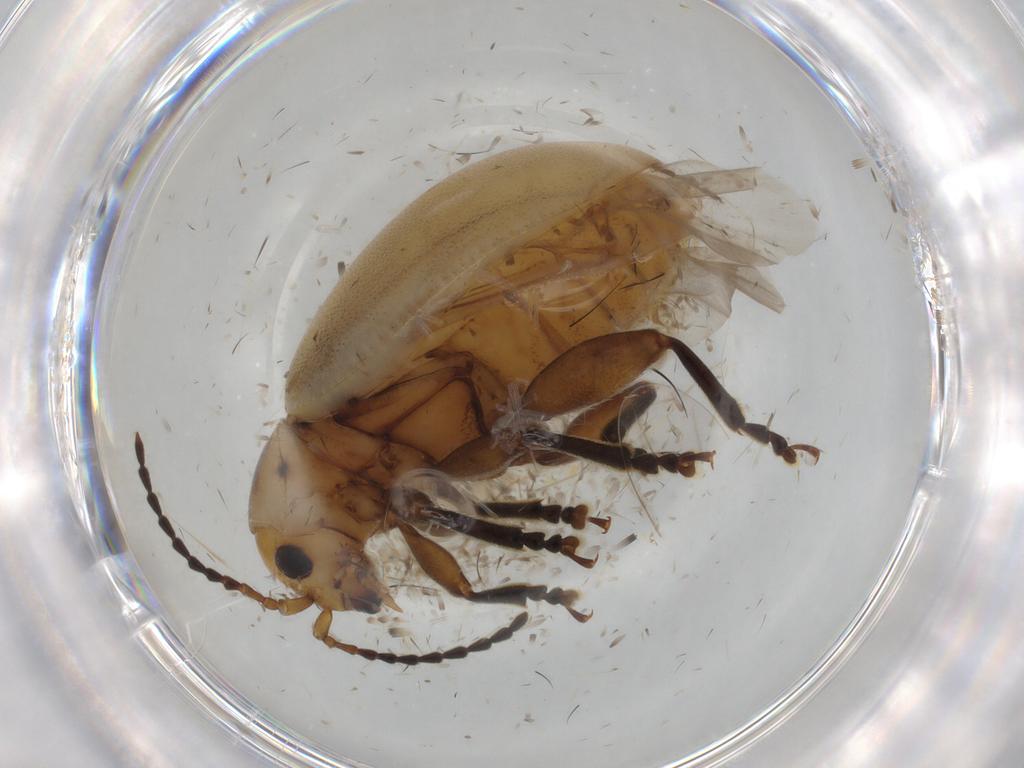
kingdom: Animalia
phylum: Arthropoda
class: Insecta
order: Coleoptera
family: Chrysomelidae
